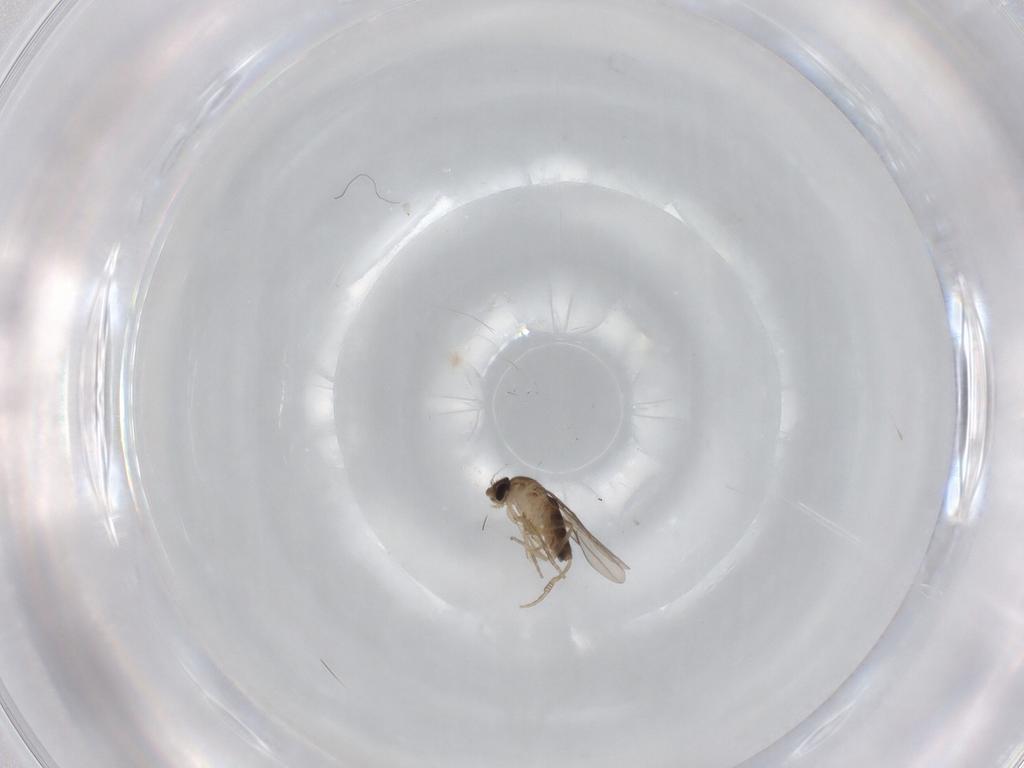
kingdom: Animalia
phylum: Arthropoda
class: Insecta
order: Diptera
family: Phoridae
